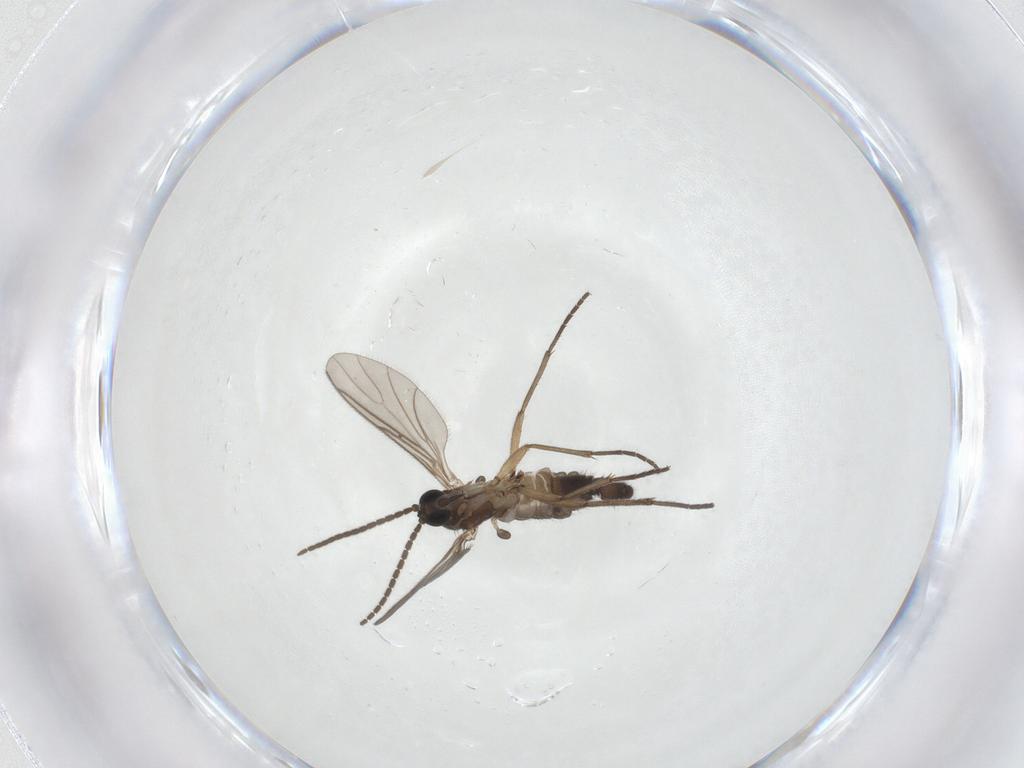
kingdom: Animalia
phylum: Arthropoda
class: Insecta
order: Diptera
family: Sciaridae
